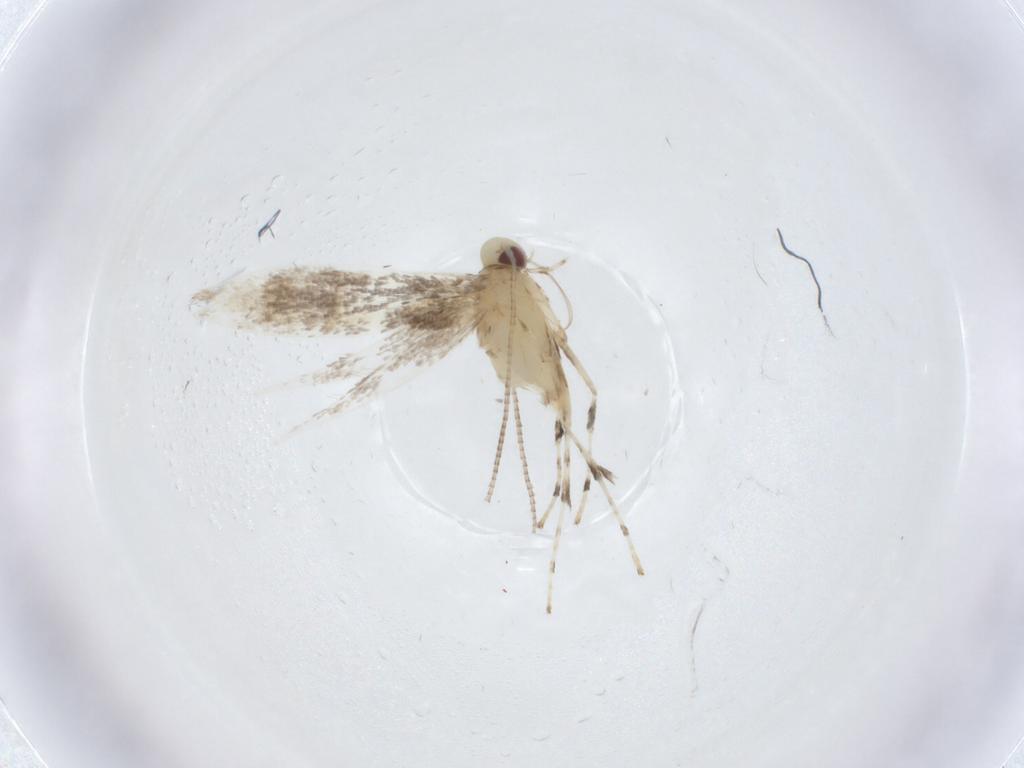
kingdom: Animalia
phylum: Arthropoda
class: Insecta
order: Lepidoptera
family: Gracillariidae
